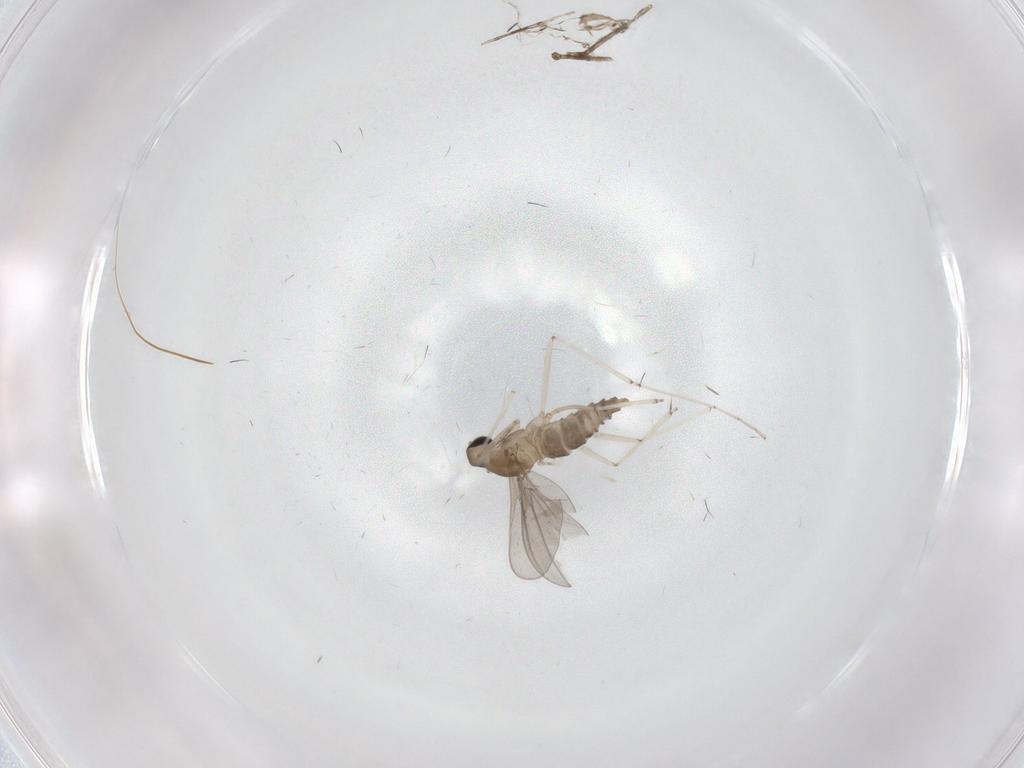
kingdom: Animalia
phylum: Arthropoda
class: Insecta
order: Diptera
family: Cecidomyiidae
